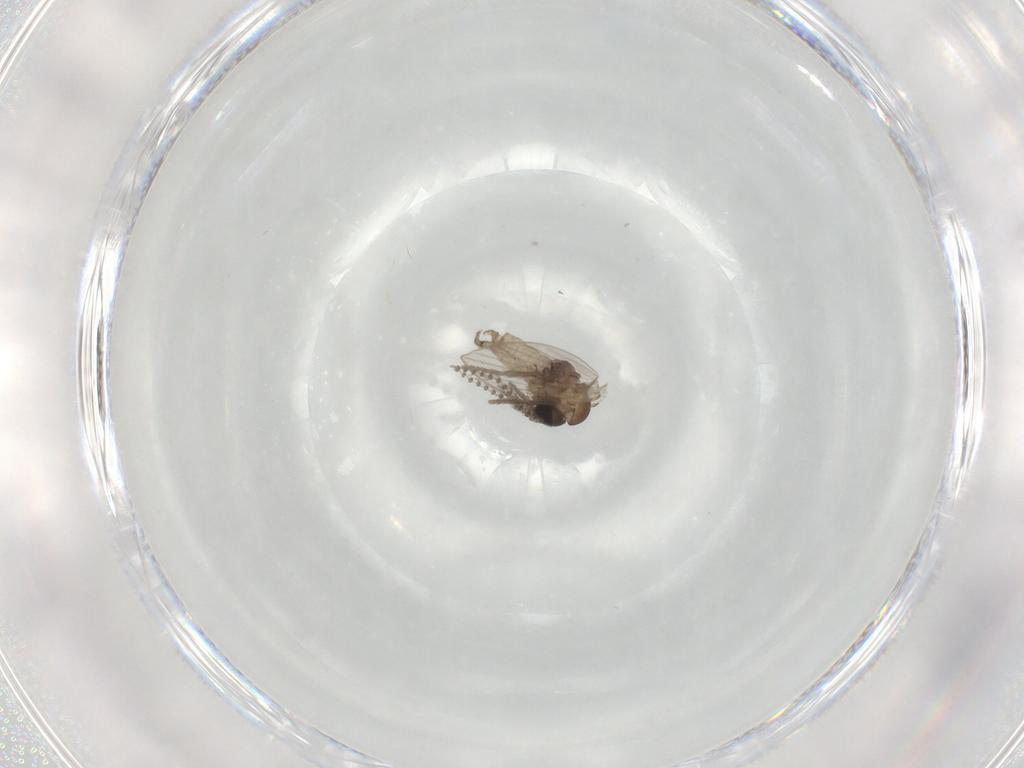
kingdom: Animalia
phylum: Arthropoda
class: Insecta
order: Diptera
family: Psychodidae
